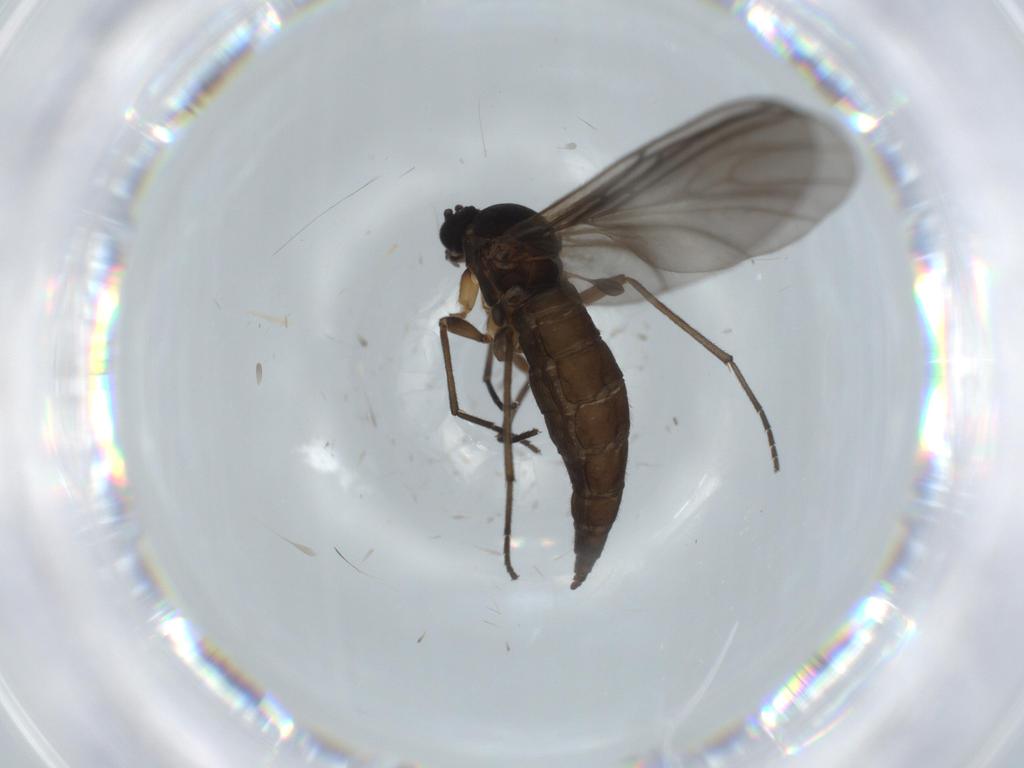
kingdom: Animalia
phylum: Arthropoda
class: Insecta
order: Diptera
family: Sciaridae
